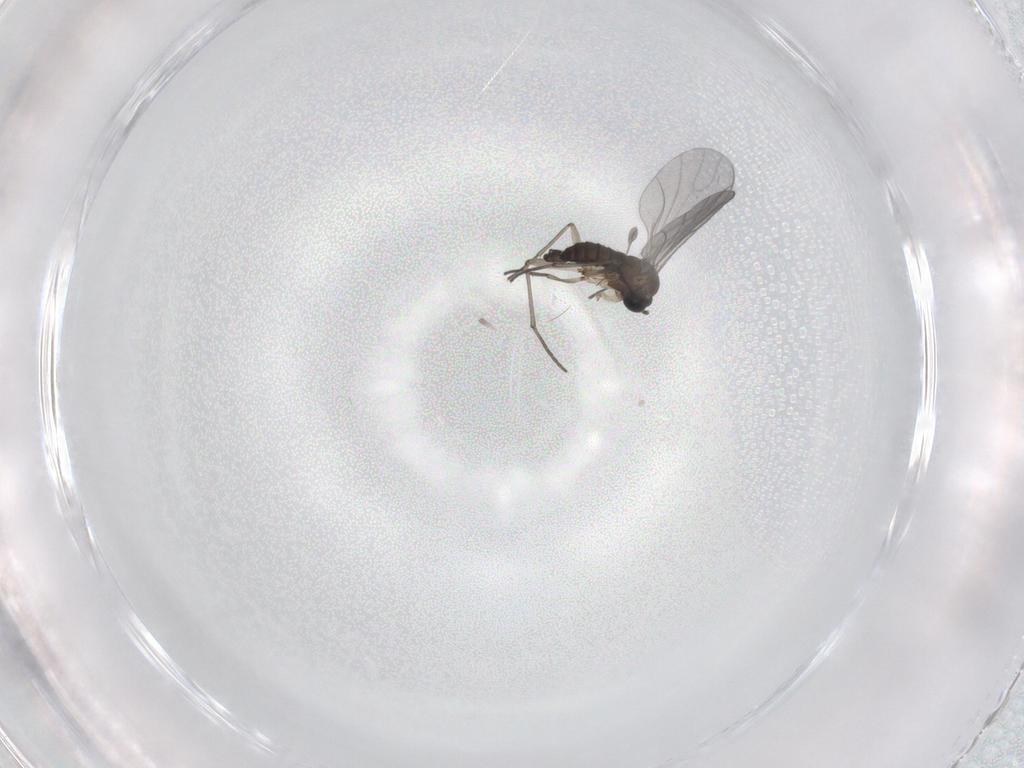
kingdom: Animalia
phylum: Arthropoda
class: Insecta
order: Diptera
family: Sciaridae
